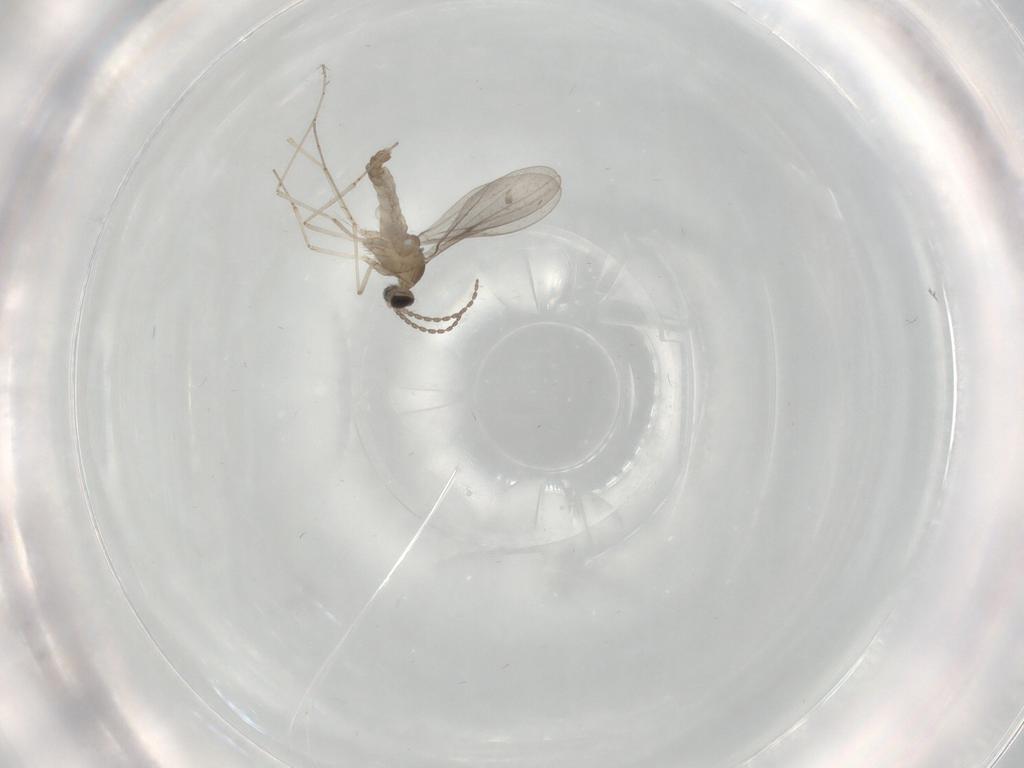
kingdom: Animalia
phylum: Arthropoda
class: Insecta
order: Diptera
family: Cecidomyiidae
